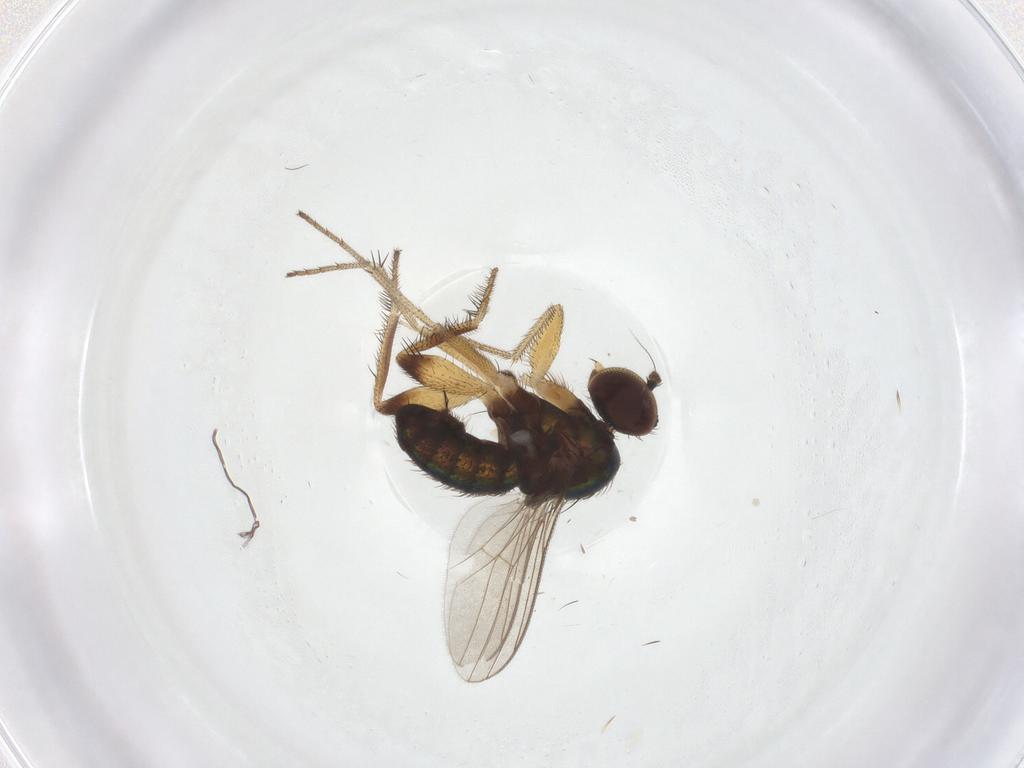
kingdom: Animalia
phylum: Arthropoda
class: Insecta
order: Diptera
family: Dolichopodidae
